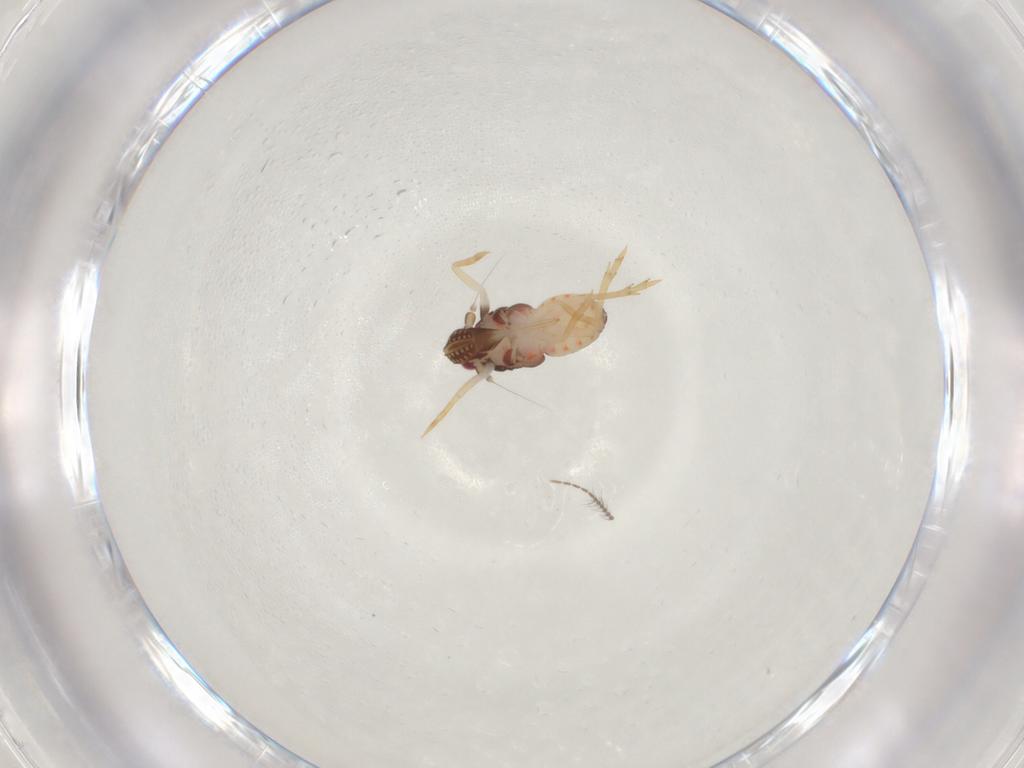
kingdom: Animalia
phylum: Arthropoda
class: Insecta
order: Hemiptera
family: Delphacidae
